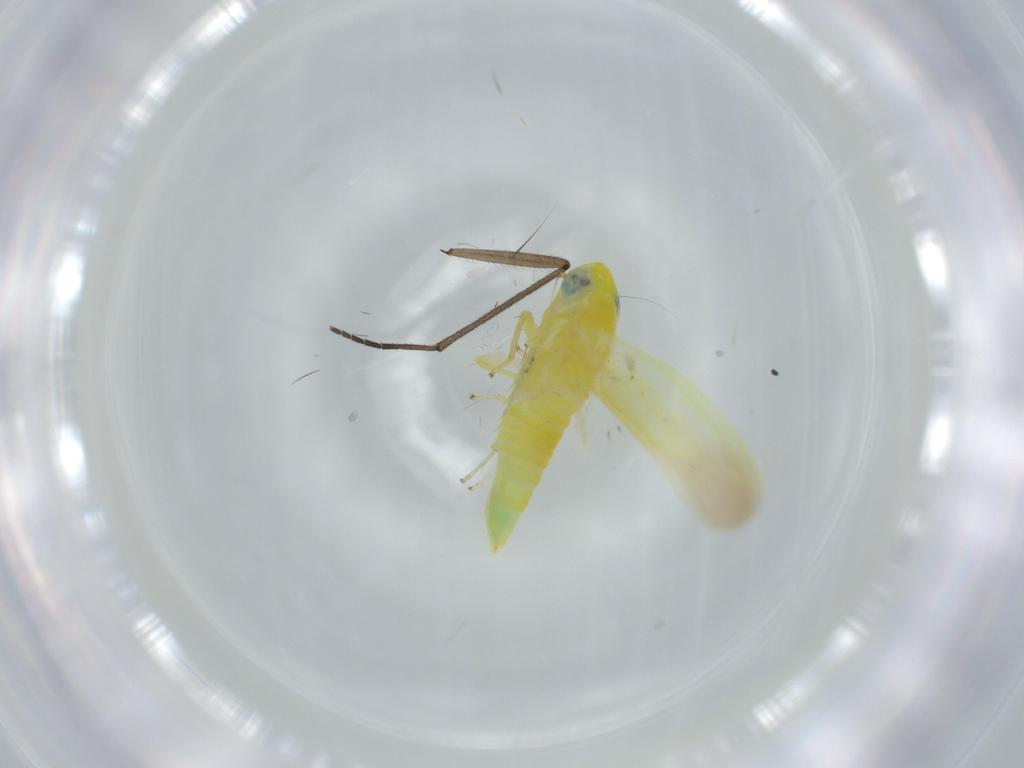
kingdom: Animalia
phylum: Arthropoda
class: Insecta
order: Hemiptera
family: Cicadellidae
